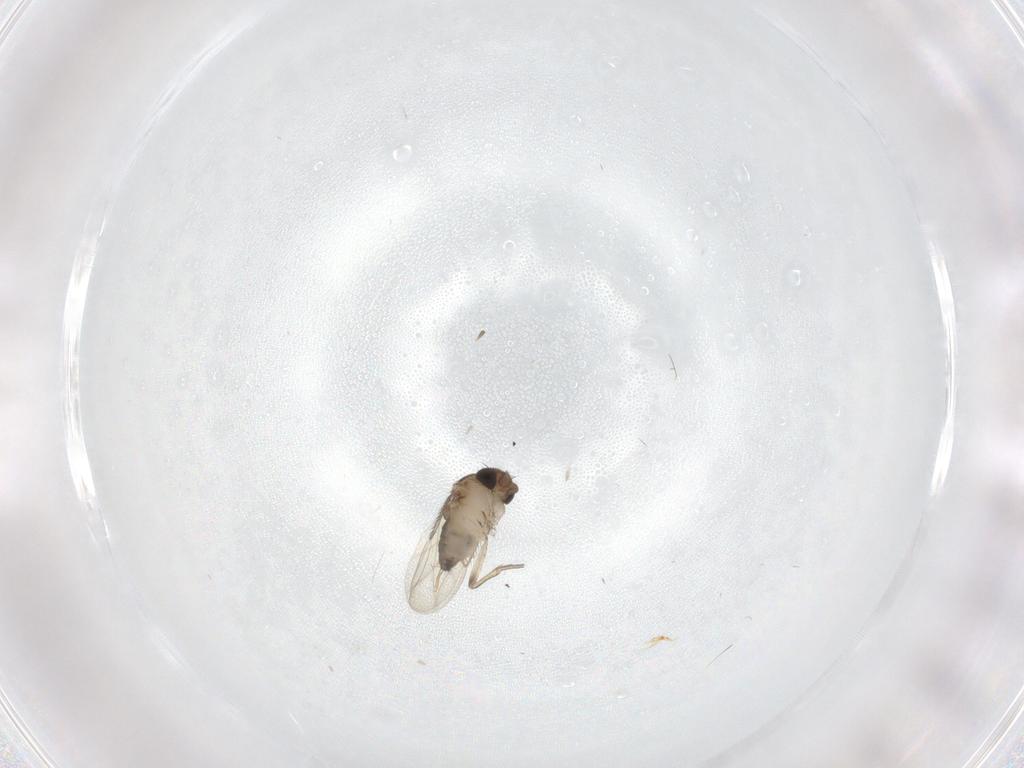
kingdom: Animalia
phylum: Arthropoda
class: Insecta
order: Diptera
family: Phoridae
